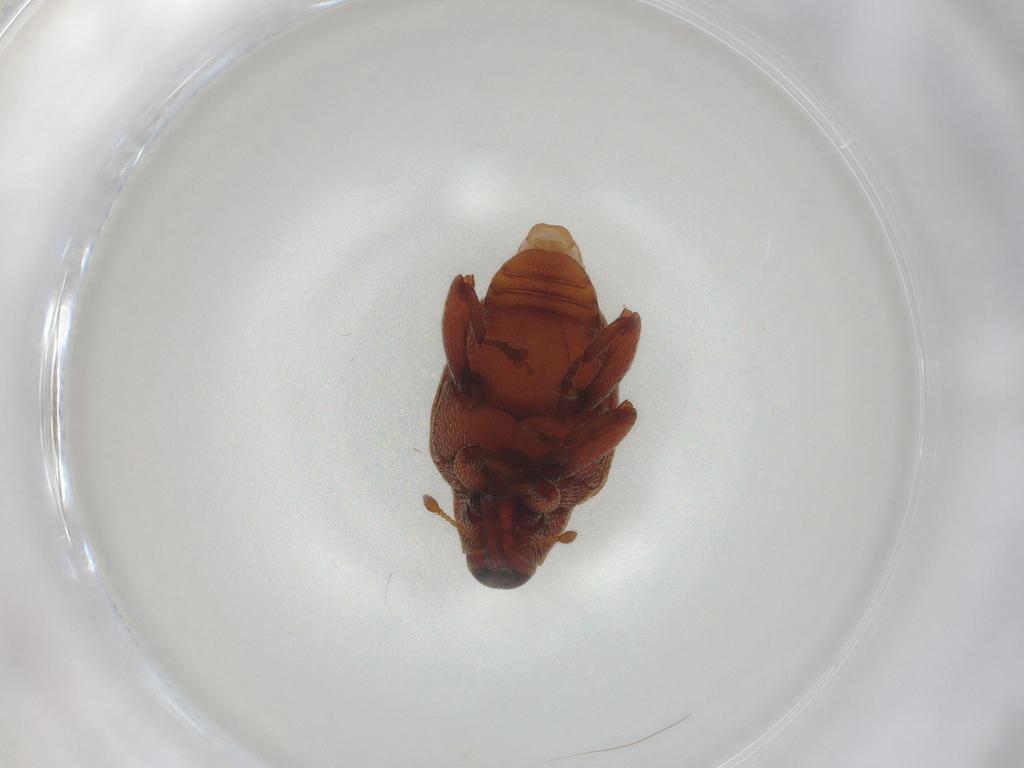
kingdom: Animalia
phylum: Arthropoda
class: Insecta
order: Coleoptera
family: Curculionidae
